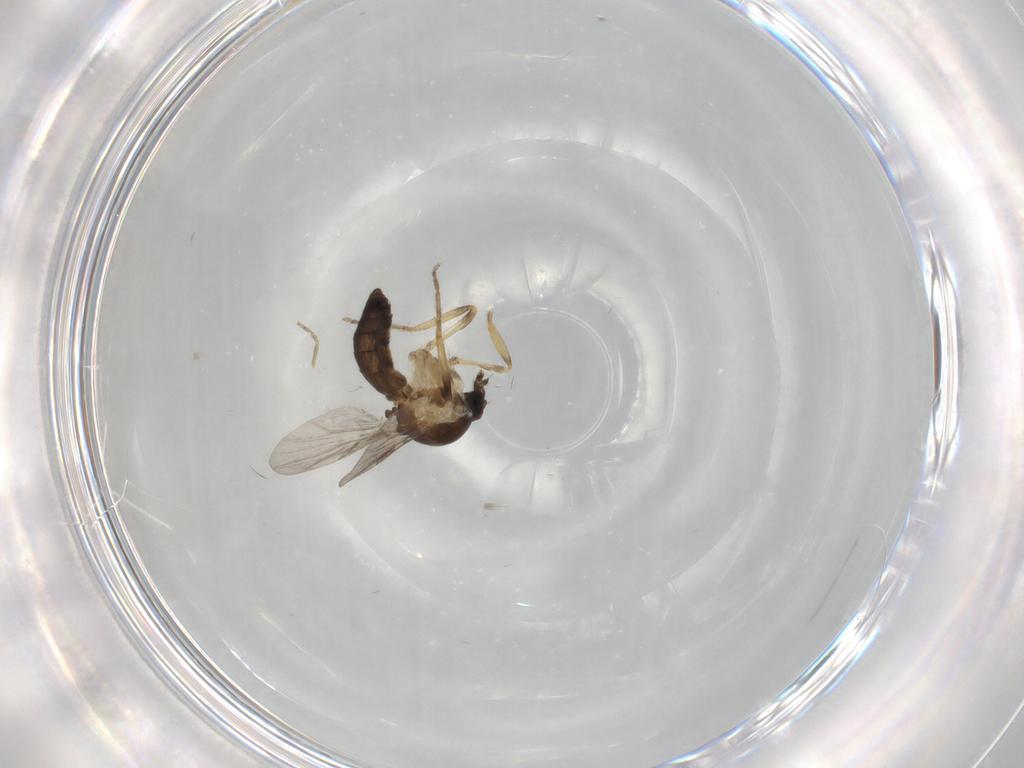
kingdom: Animalia
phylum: Arthropoda
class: Insecta
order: Diptera
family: Ceratopogonidae
